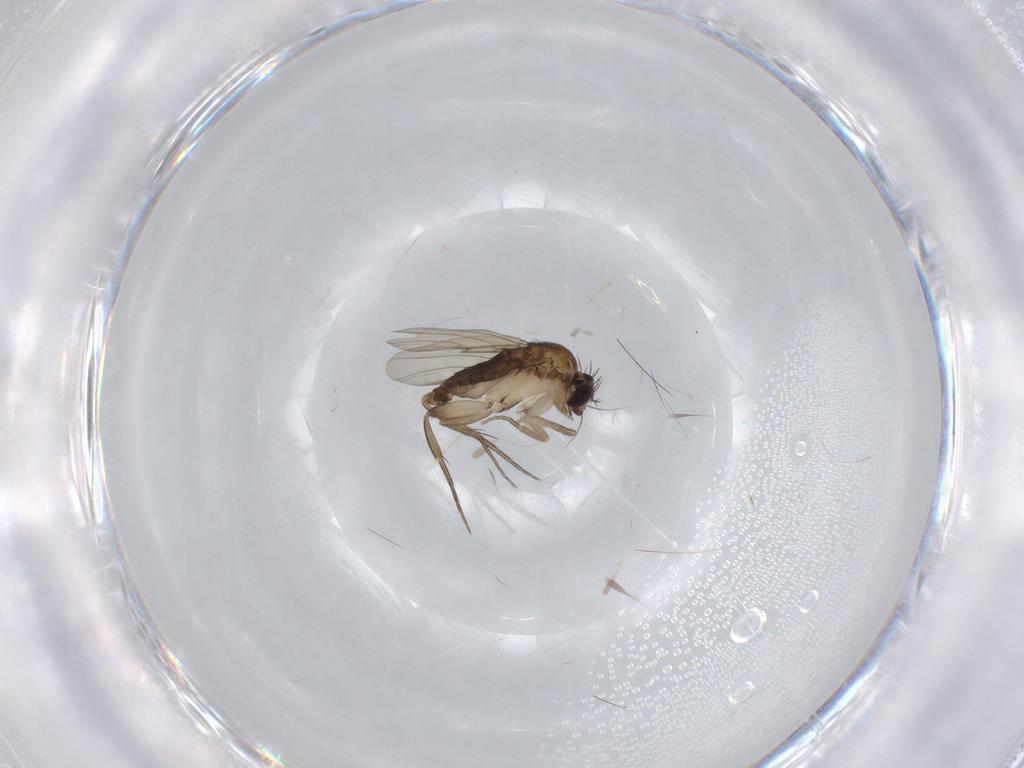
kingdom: Animalia
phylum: Arthropoda
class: Insecta
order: Diptera
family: Phoridae
